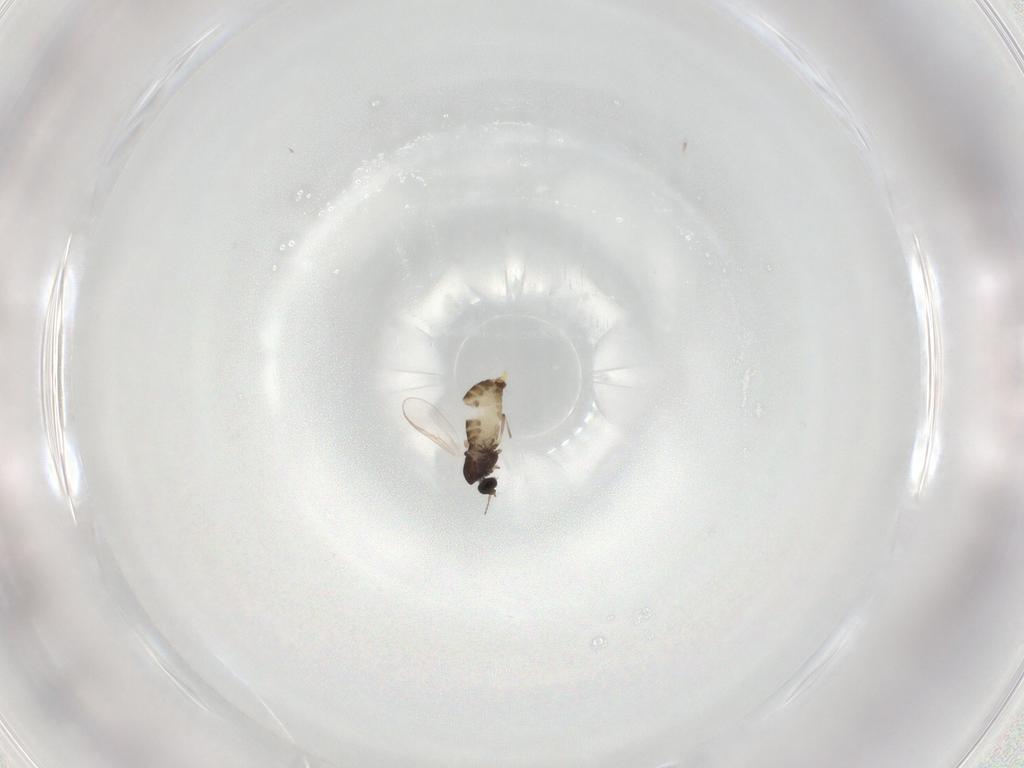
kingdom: Animalia
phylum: Arthropoda
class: Insecta
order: Diptera
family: Chironomidae
